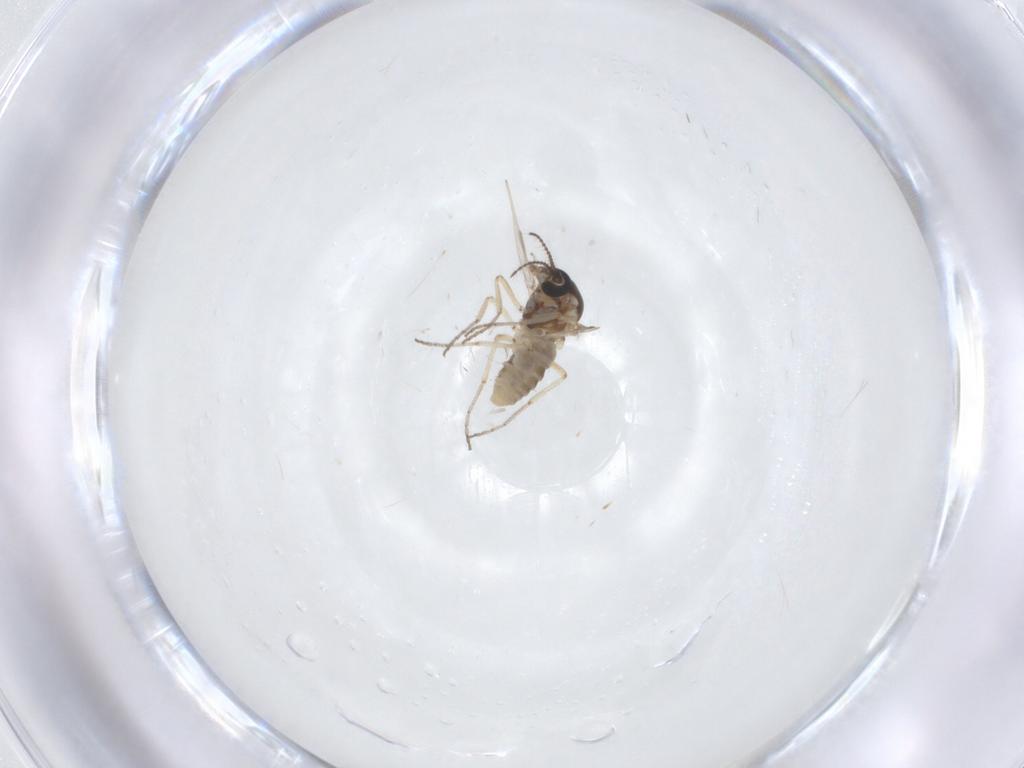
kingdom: Animalia
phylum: Arthropoda
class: Insecta
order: Diptera
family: Ceratopogonidae
